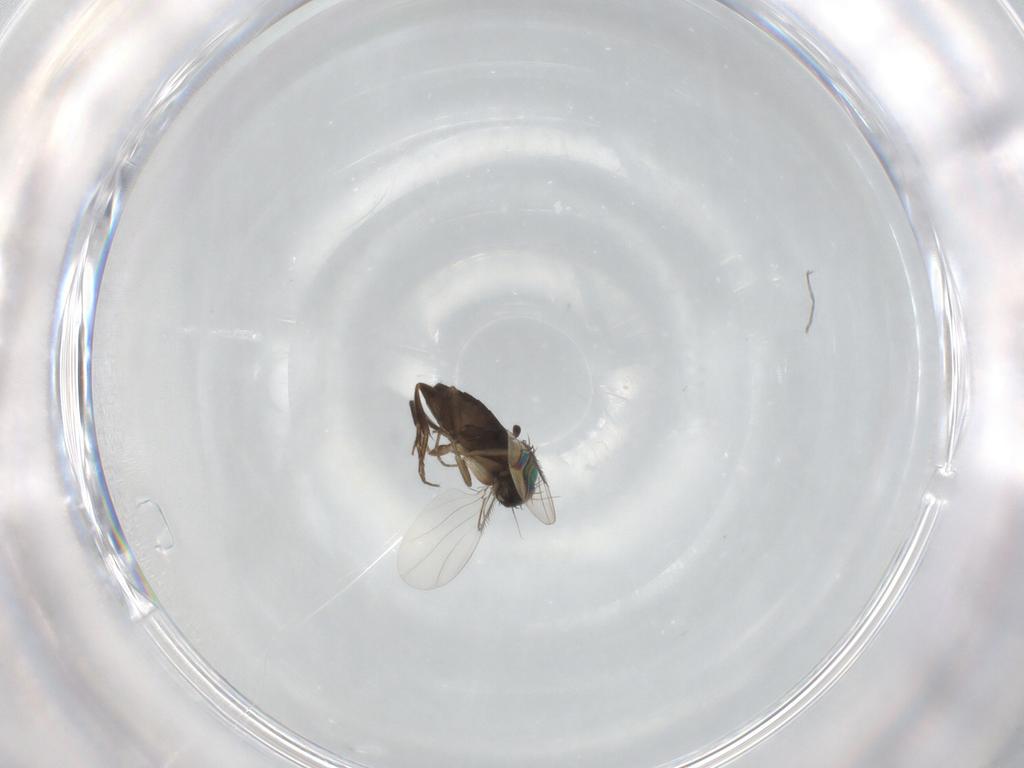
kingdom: Animalia
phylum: Arthropoda
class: Insecta
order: Diptera
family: Phoridae
